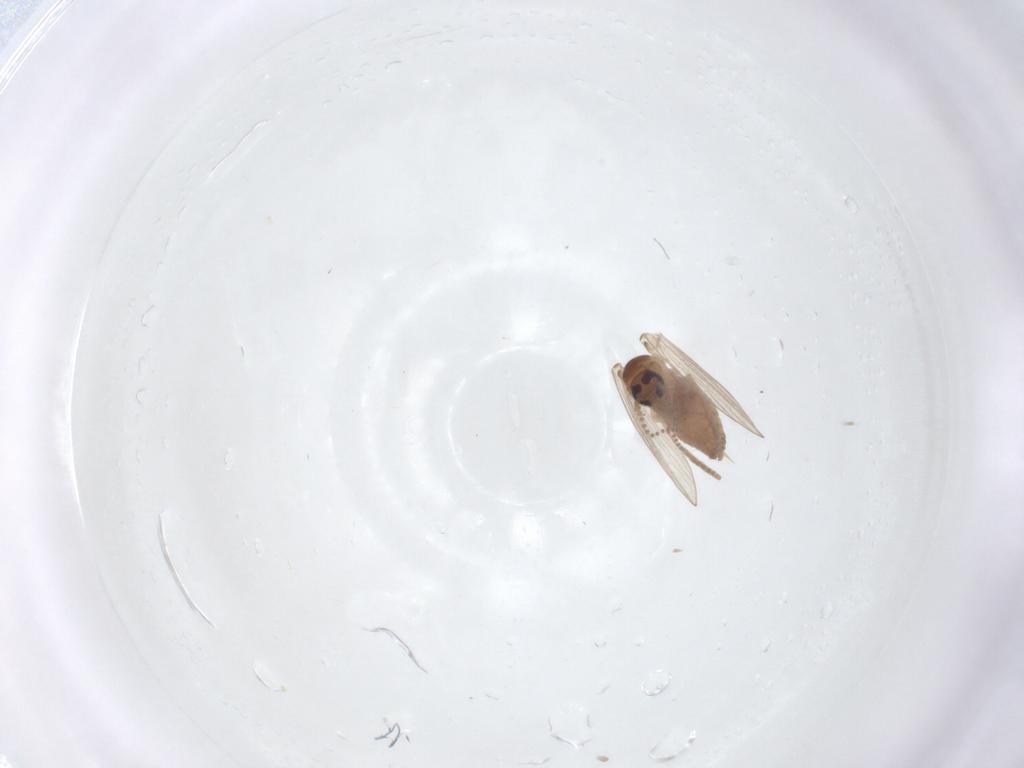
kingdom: Animalia
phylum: Arthropoda
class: Insecta
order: Diptera
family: Psychodidae
